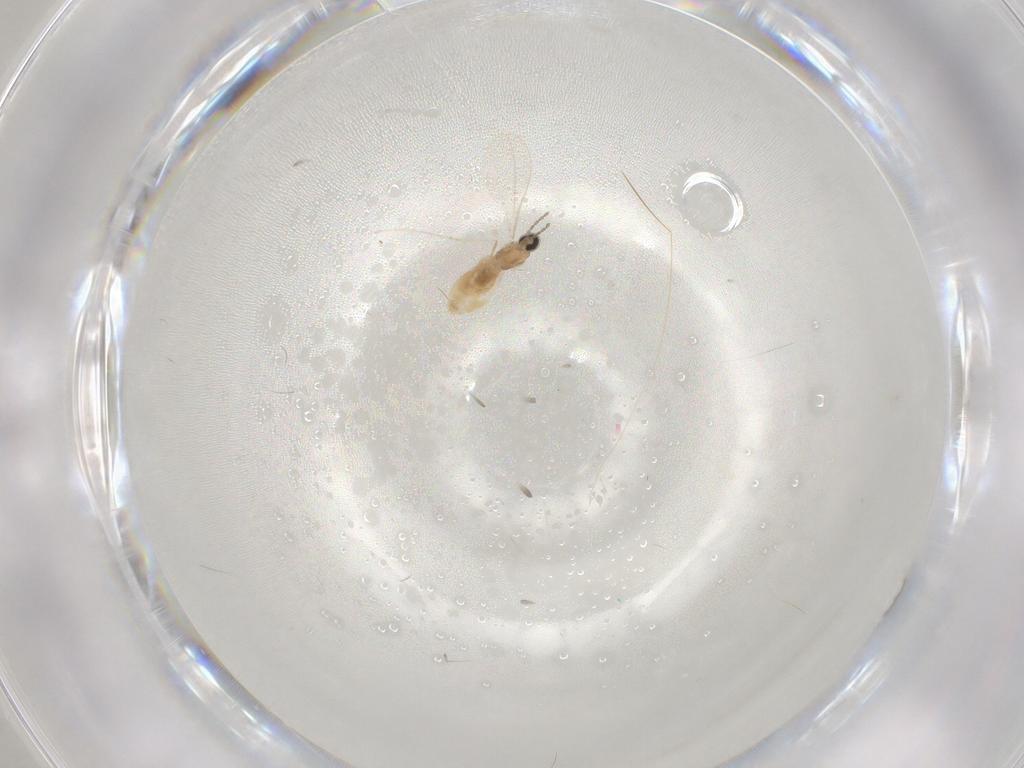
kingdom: Animalia
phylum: Arthropoda
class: Insecta
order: Diptera
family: Cecidomyiidae
